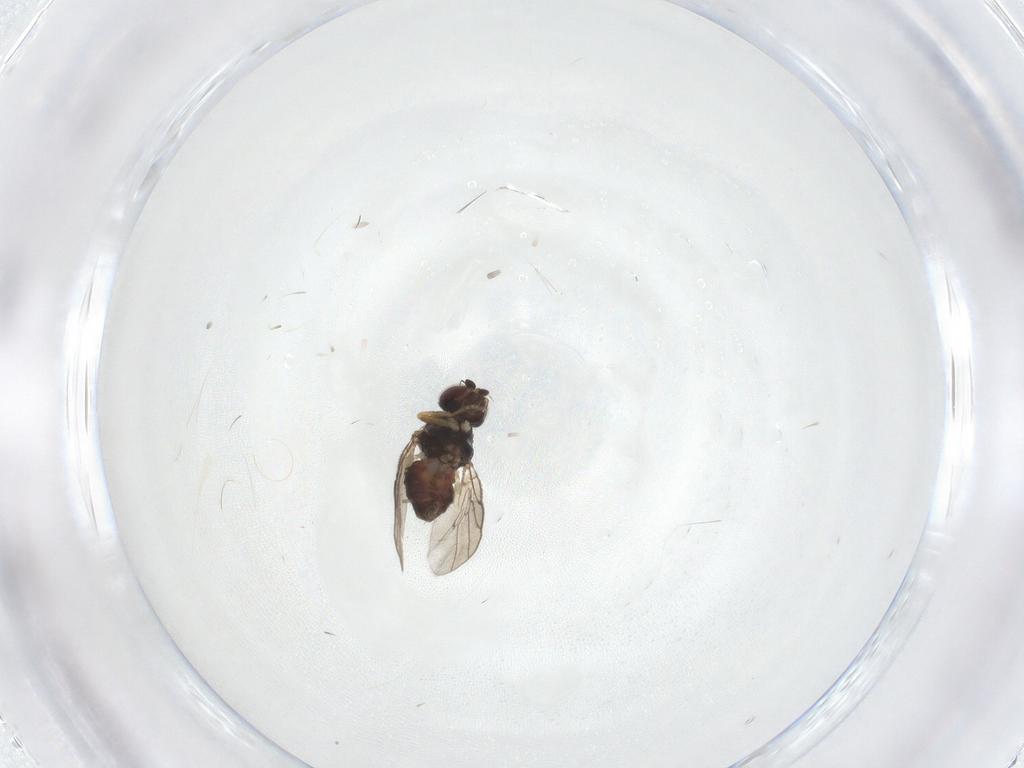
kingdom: Animalia
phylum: Arthropoda
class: Insecta
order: Diptera
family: Chloropidae
